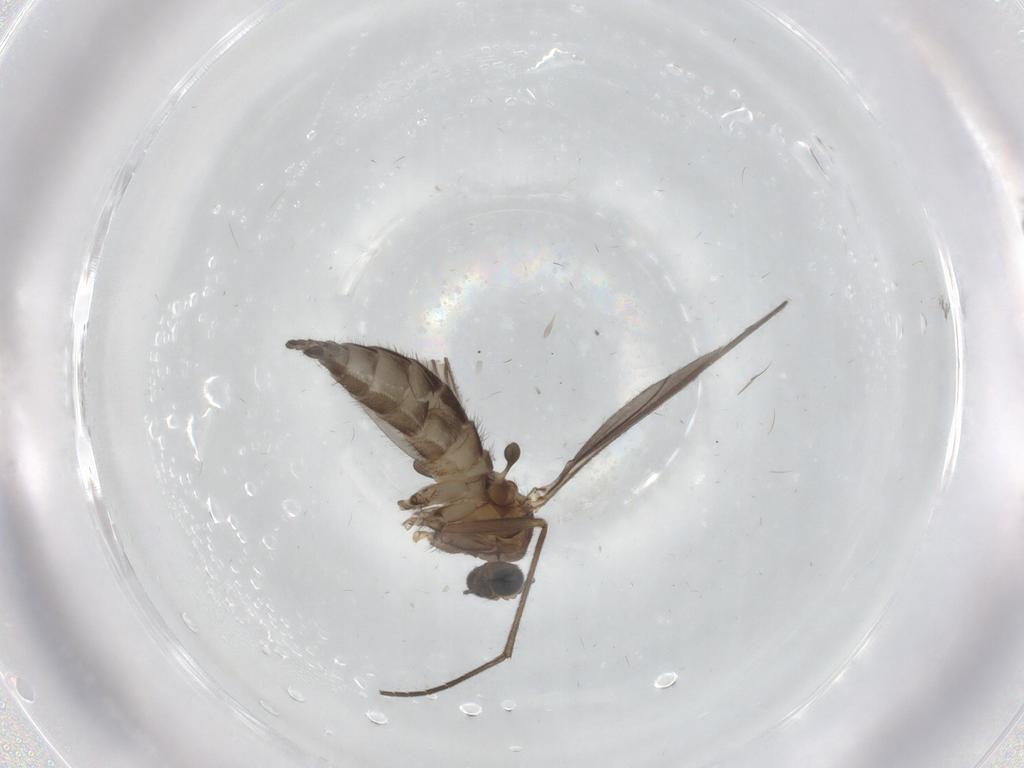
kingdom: Animalia
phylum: Arthropoda
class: Insecta
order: Diptera
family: Sciaridae
